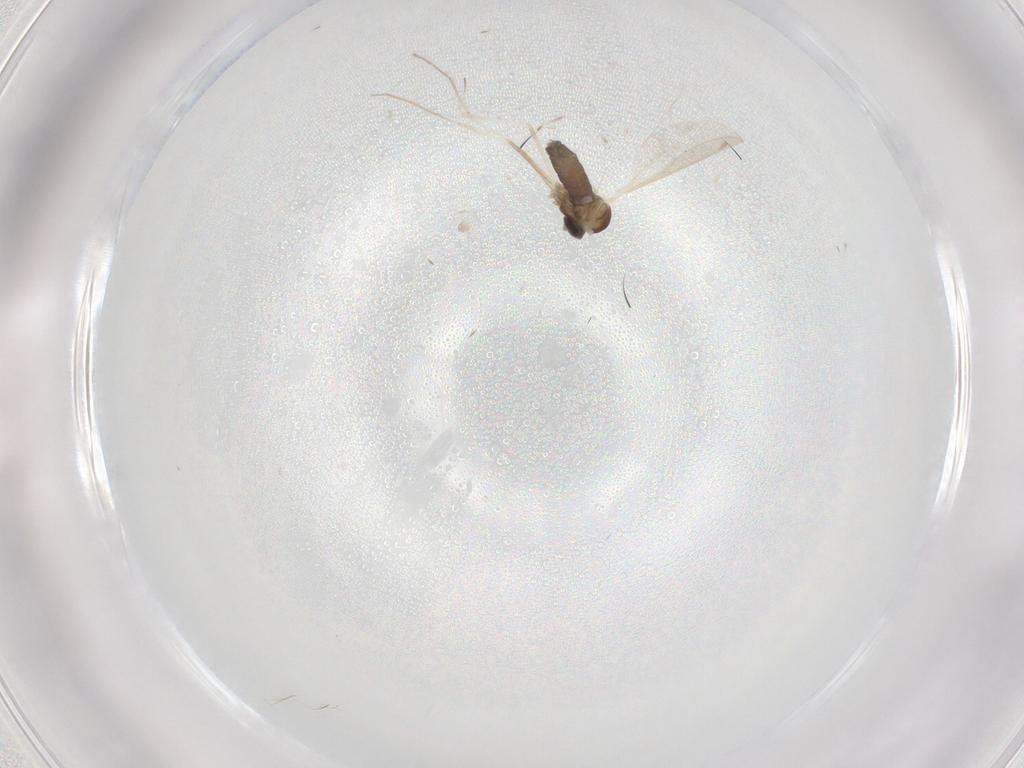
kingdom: Animalia
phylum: Arthropoda
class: Insecta
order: Diptera
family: Cecidomyiidae
